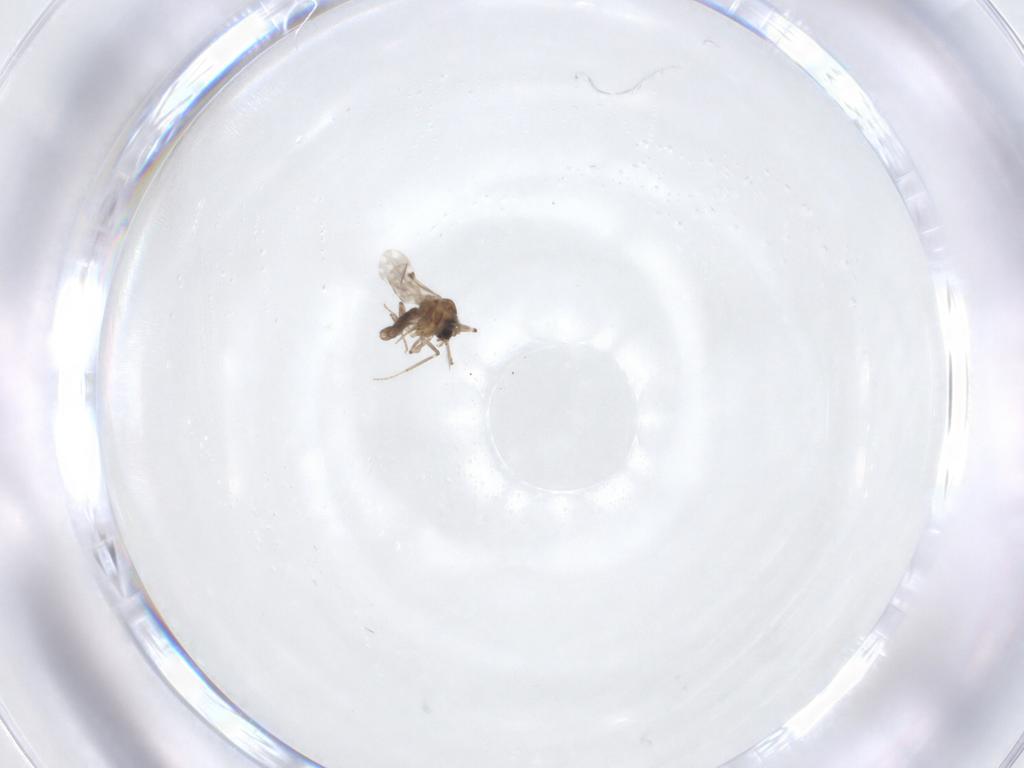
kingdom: Animalia
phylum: Arthropoda
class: Insecta
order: Diptera
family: Ceratopogonidae
